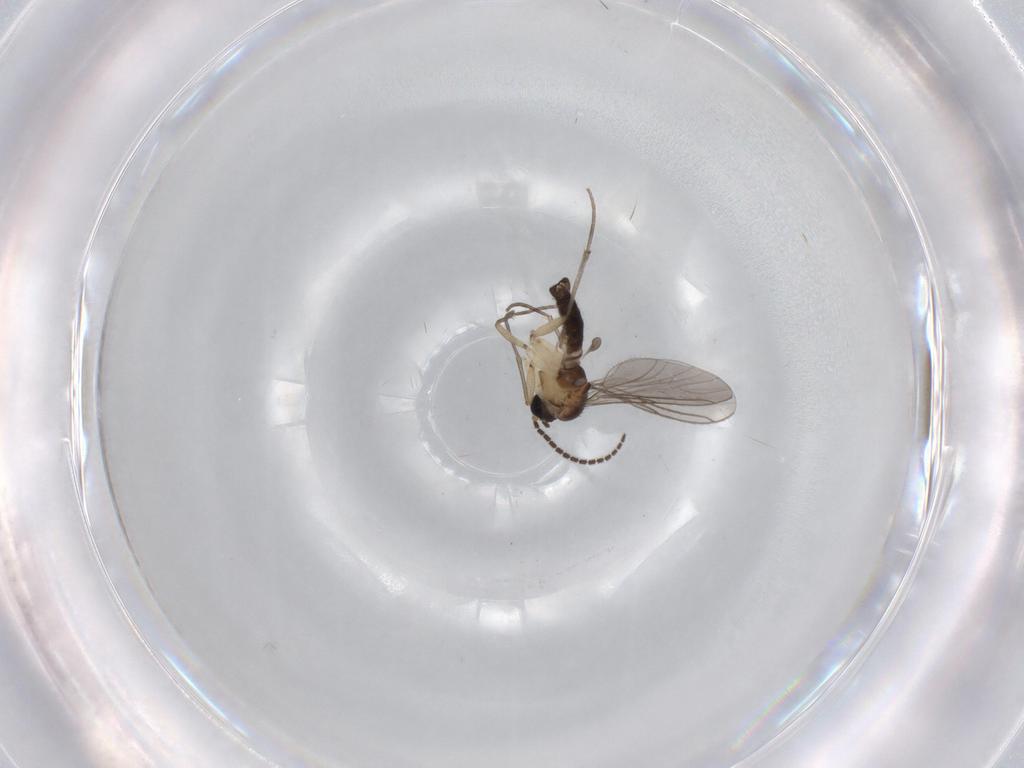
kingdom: Animalia
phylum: Arthropoda
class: Insecta
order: Diptera
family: Sciaridae
